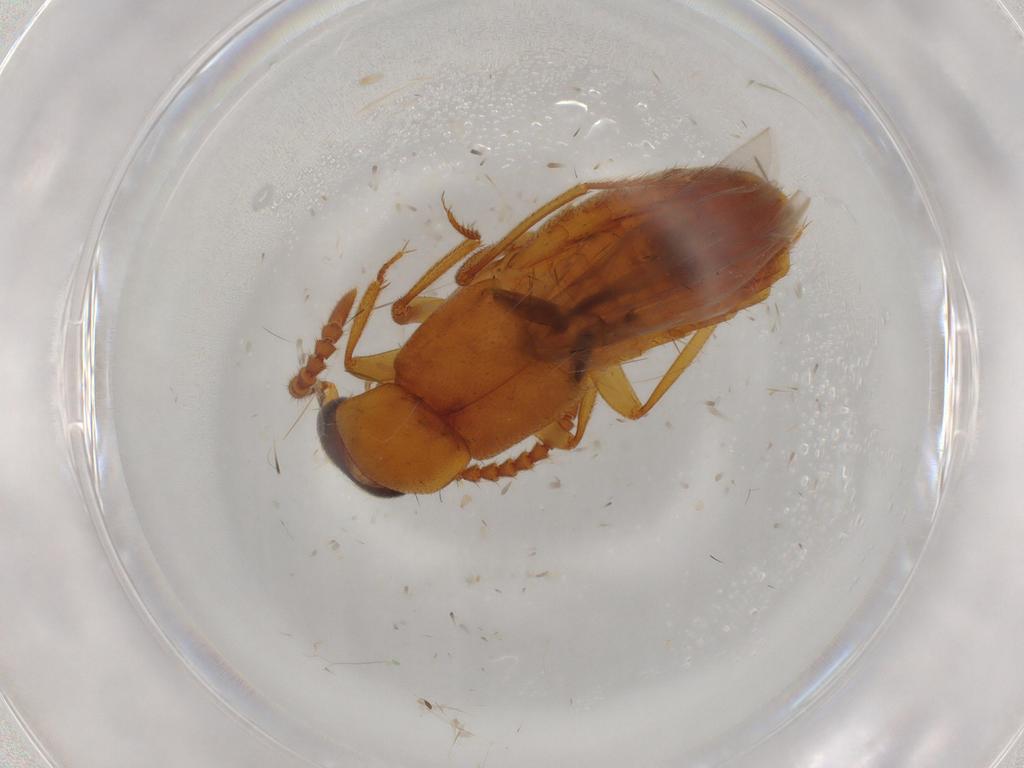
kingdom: Animalia
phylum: Arthropoda
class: Insecta
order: Coleoptera
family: Staphylinidae
